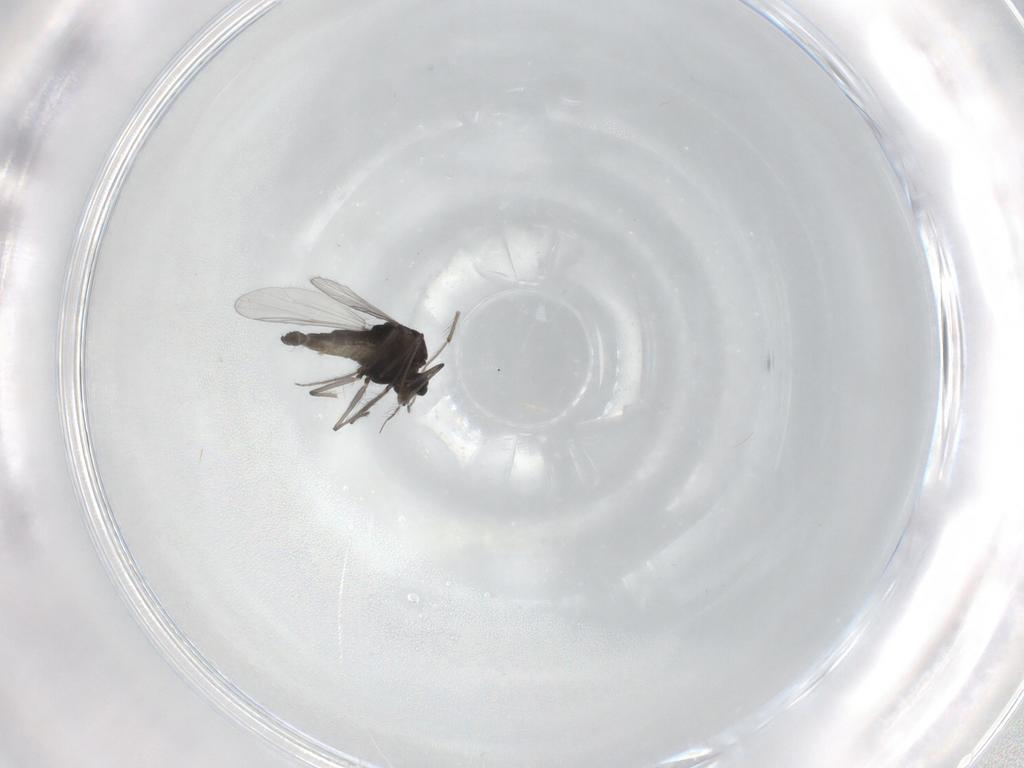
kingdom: Animalia
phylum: Arthropoda
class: Insecta
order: Diptera
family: Chironomidae
